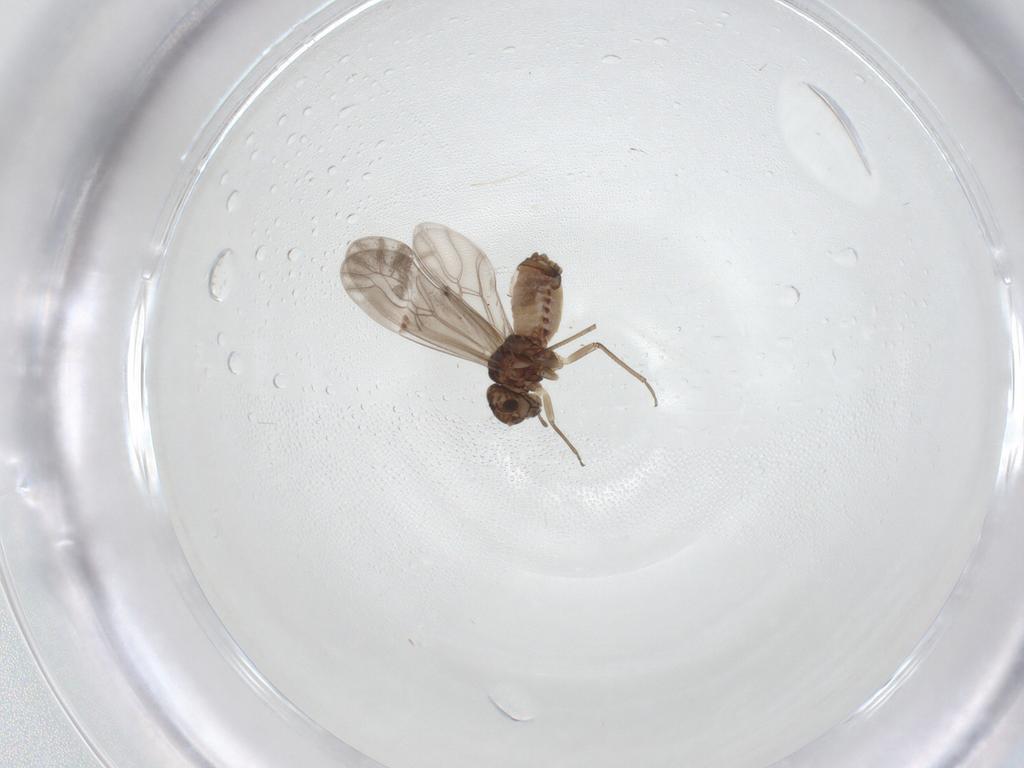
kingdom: Animalia
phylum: Arthropoda
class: Insecta
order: Psocodea
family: Lachesillidae
